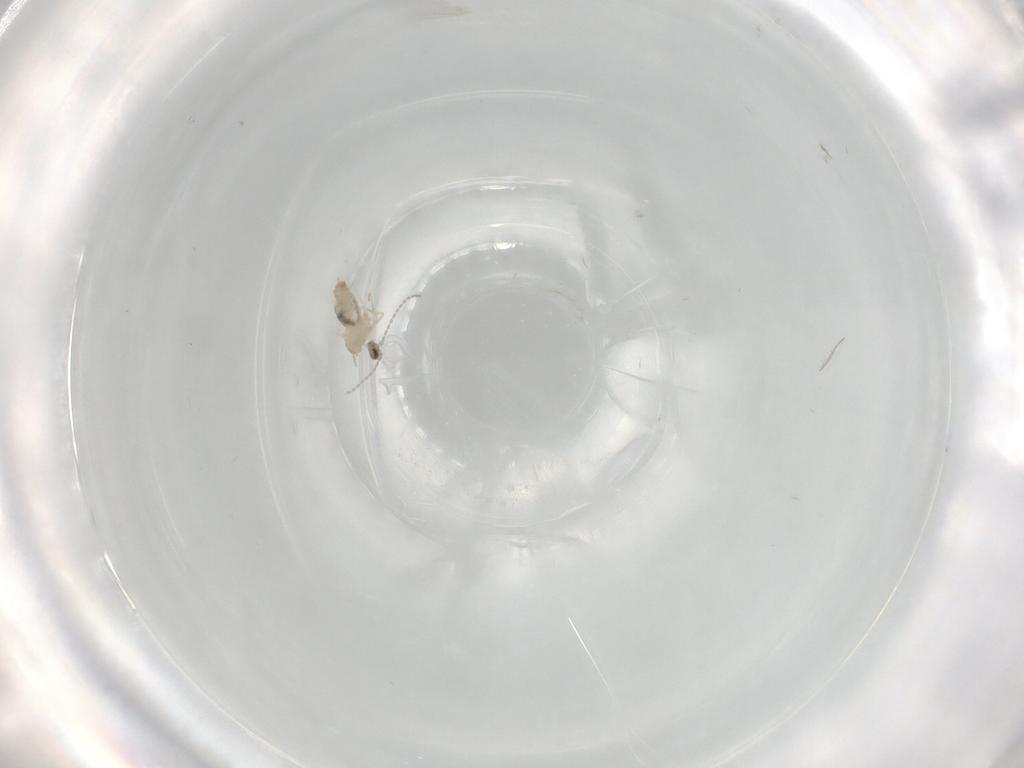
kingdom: Animalia
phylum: Arthropoda
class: Insecta
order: Diptera
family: Cecidomyiidae
